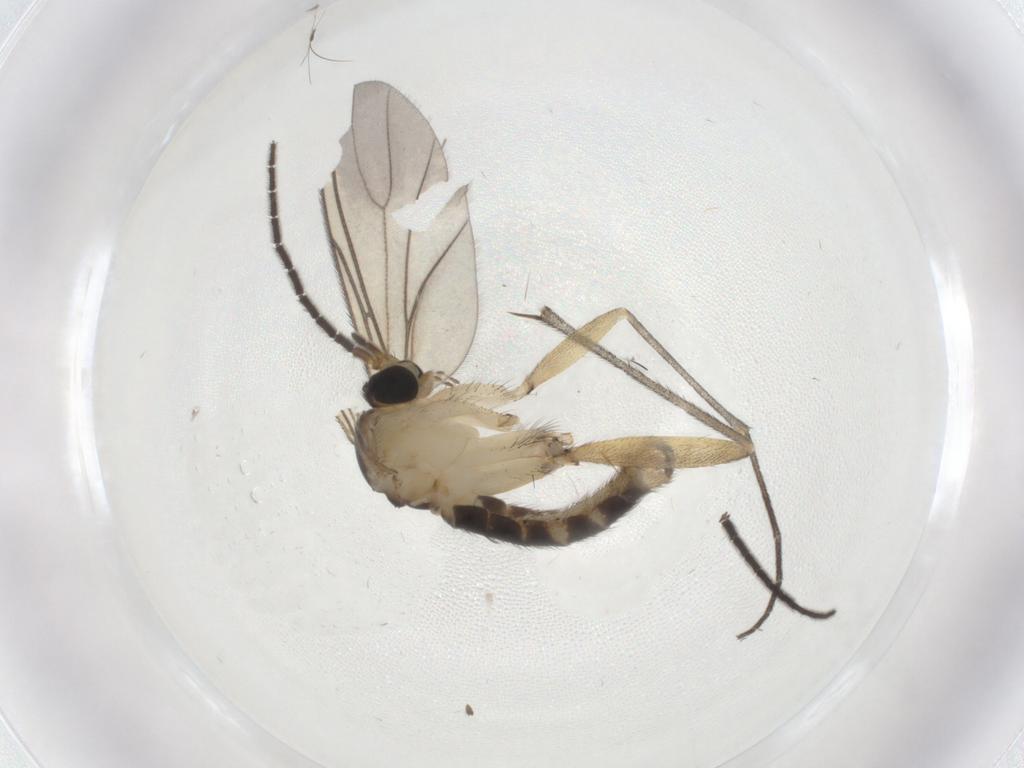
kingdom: Animalia
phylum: Arthropoda
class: Insecta
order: Diptera
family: Sciaridae
